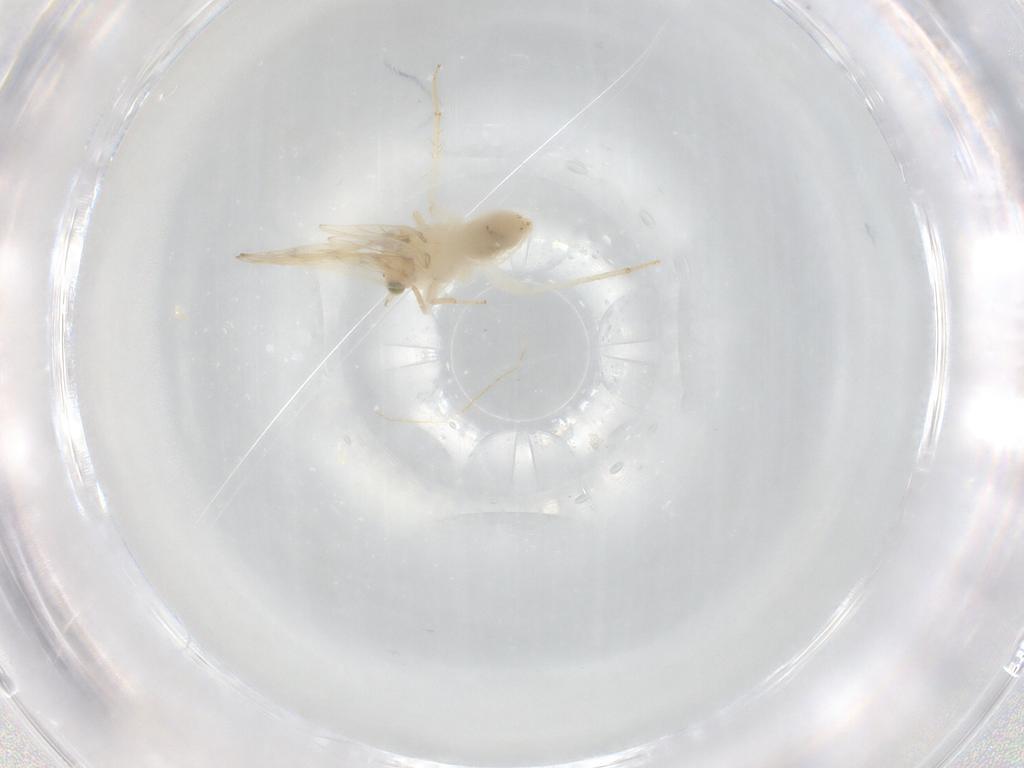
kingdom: Animalia
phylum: Arthropoda
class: Insecta
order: Psocodea
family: Lepidopsocidae
